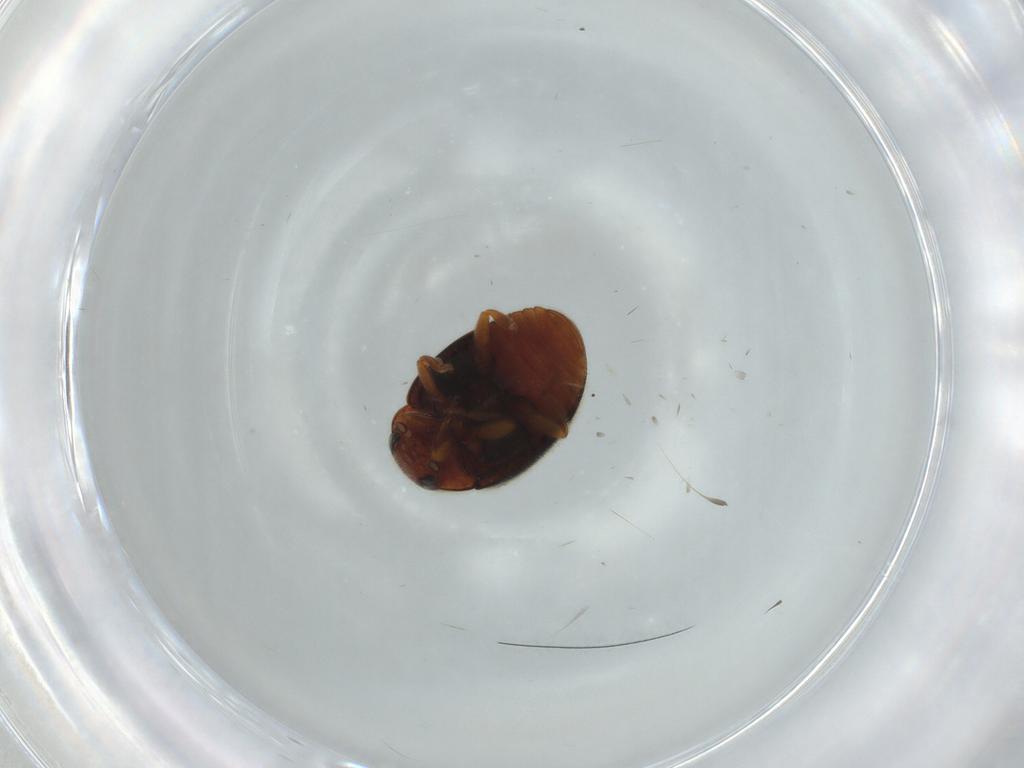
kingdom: Animalia
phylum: Arthropoda
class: Insecta
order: Coleoptera
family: Coccinellidae
